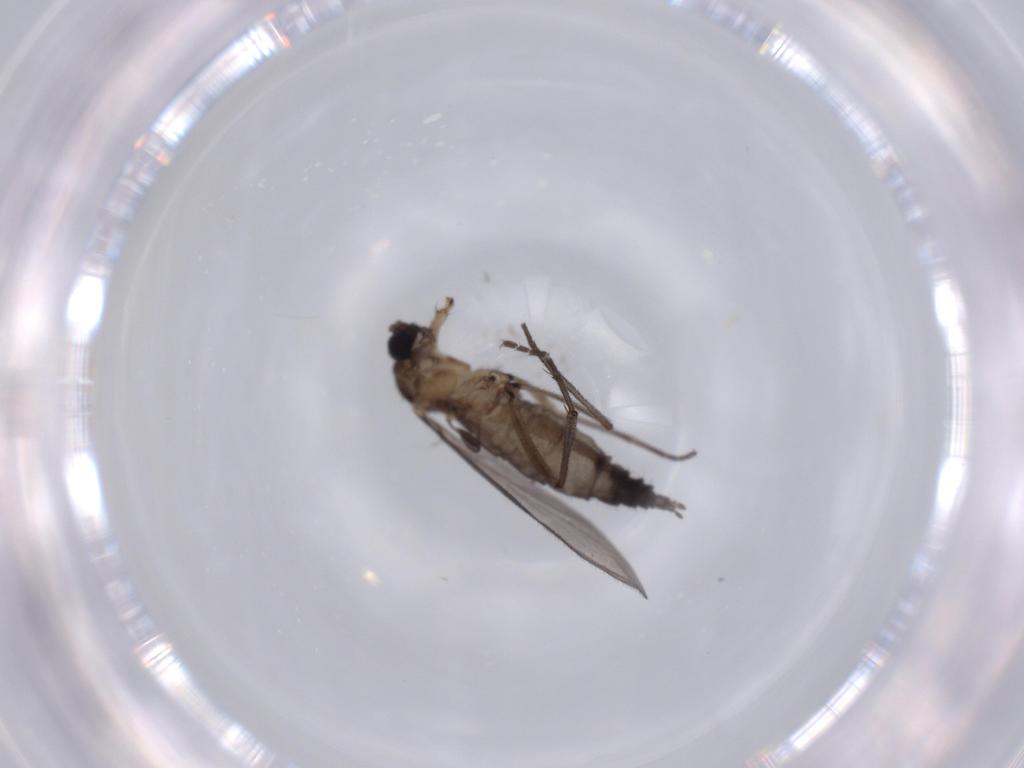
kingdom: Animalia
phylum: Arthropoda
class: Insecta
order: Diptera
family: Sciaridae
